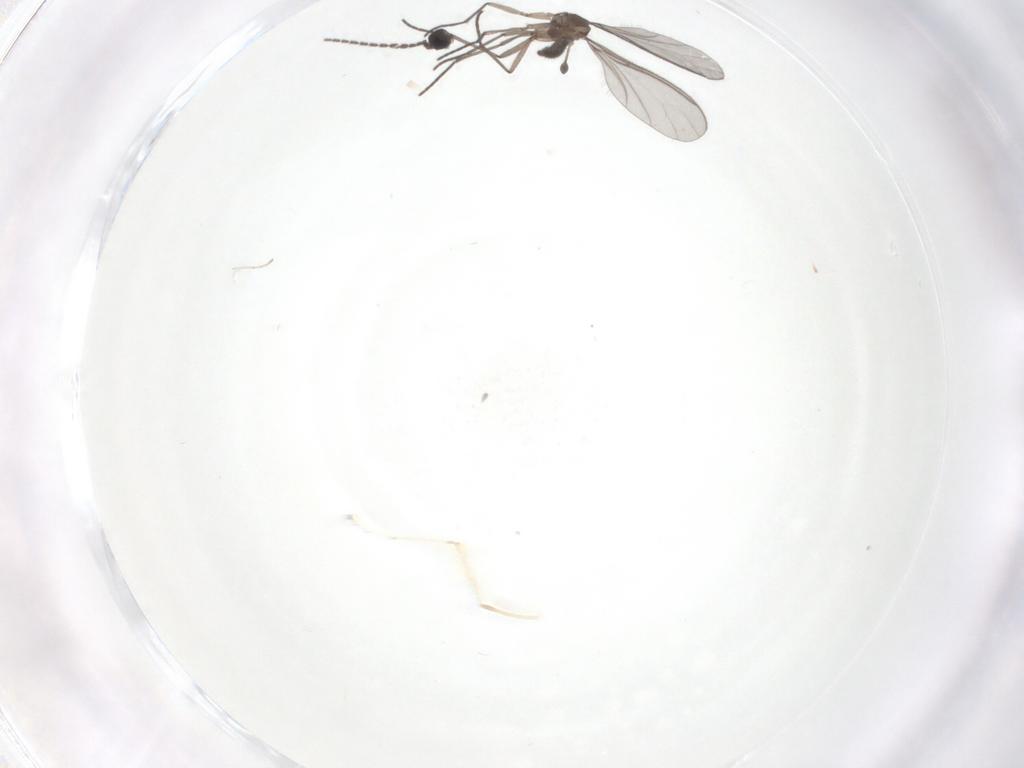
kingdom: Animalia
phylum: Arthropoda
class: Insecta
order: Diptera
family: Sciaridae
